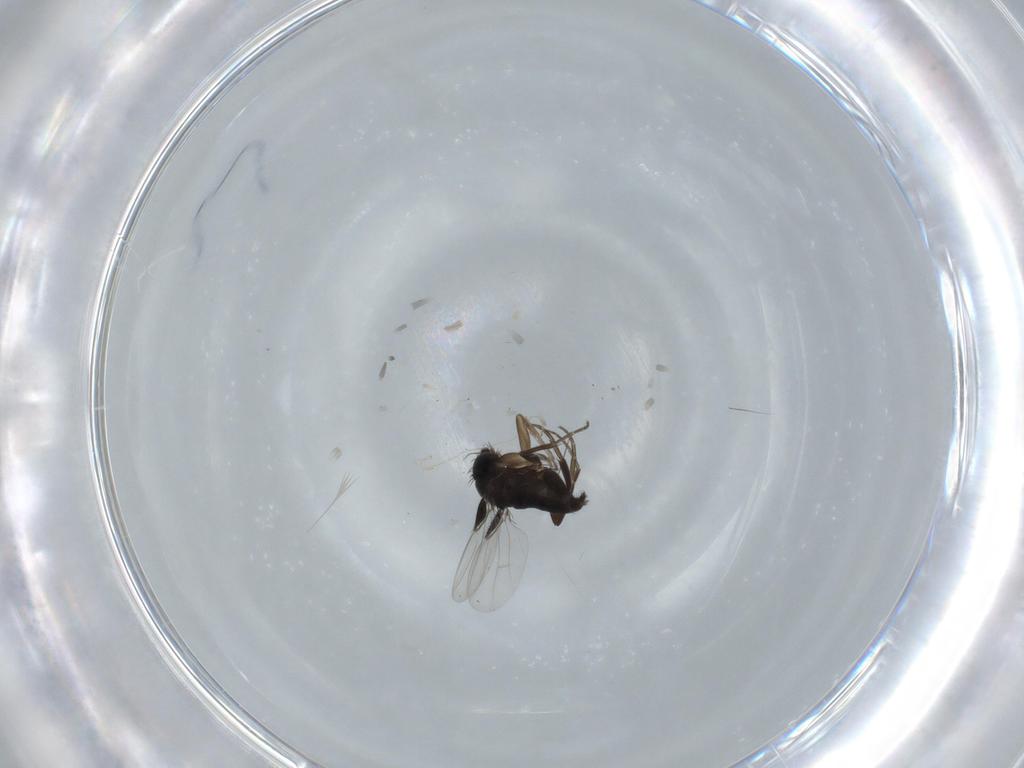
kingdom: Animalia
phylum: Arthropoda
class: Insecta
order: Diptera
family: Phoridae
